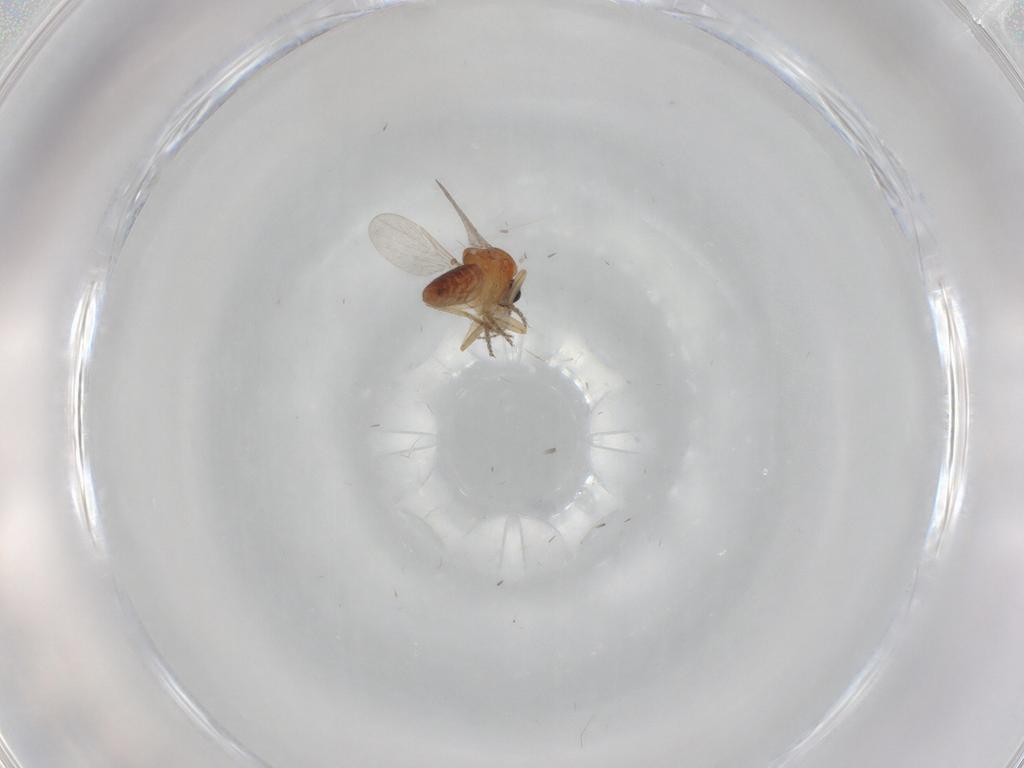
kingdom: Animalia
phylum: Arthropoda
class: Insecta
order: Diptera
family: Ceratopogonidae
